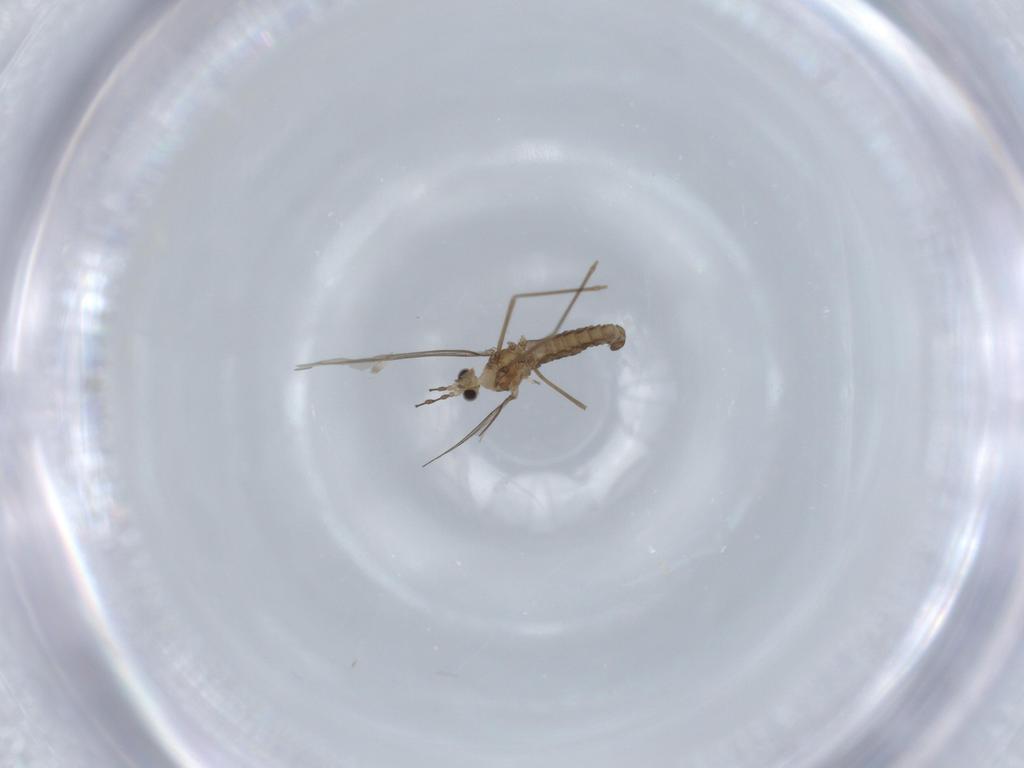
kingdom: Animalia
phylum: Arthropoda
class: Insecta
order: Diptera
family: Cecidomyiidae
